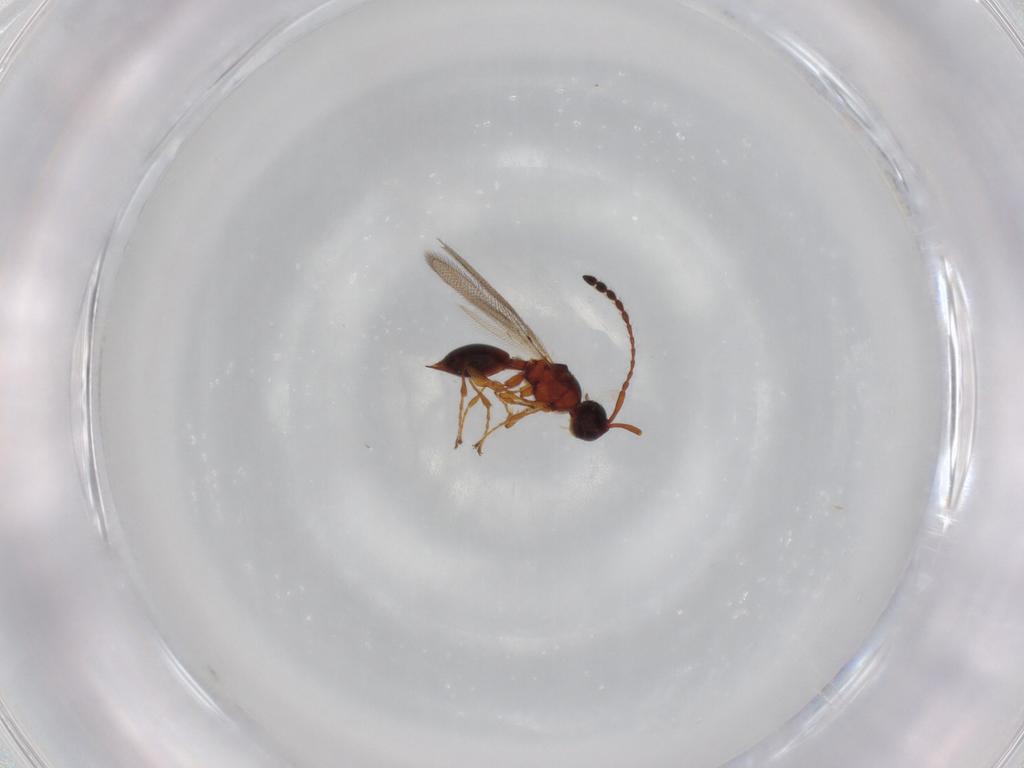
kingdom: Animalia
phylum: Arthropoda
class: Insecta
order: Hymenoptera
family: Diapriidae
